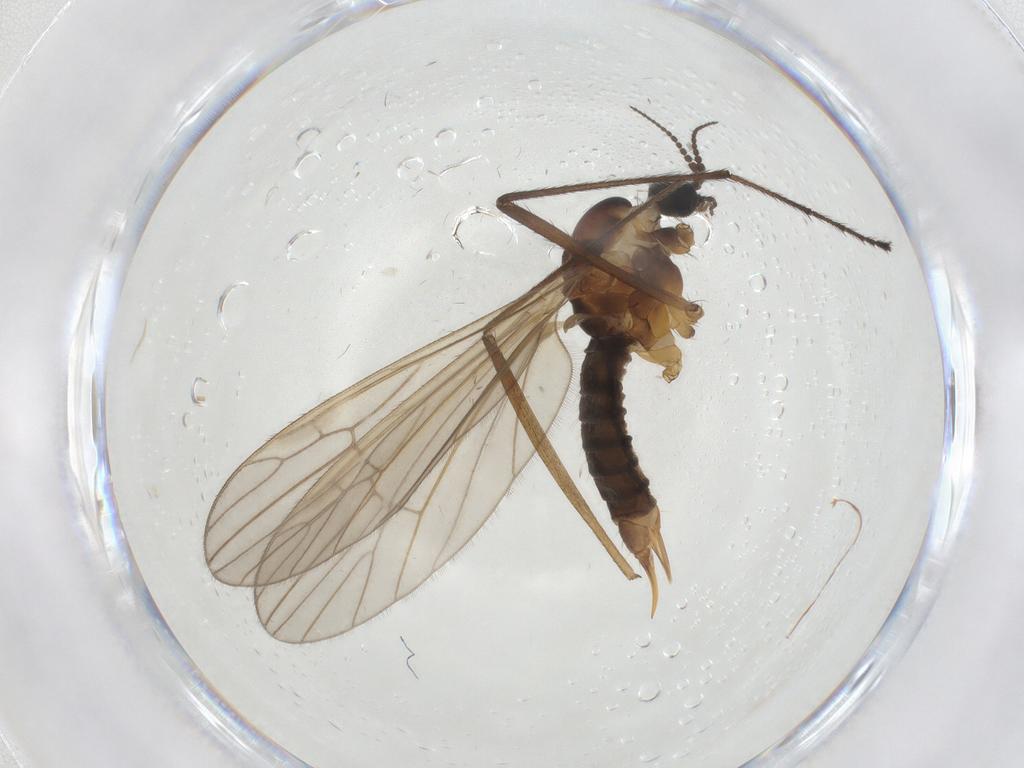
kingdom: Animalia
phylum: Arthropoda
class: Insecta
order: Diptera
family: Agromyzidae
